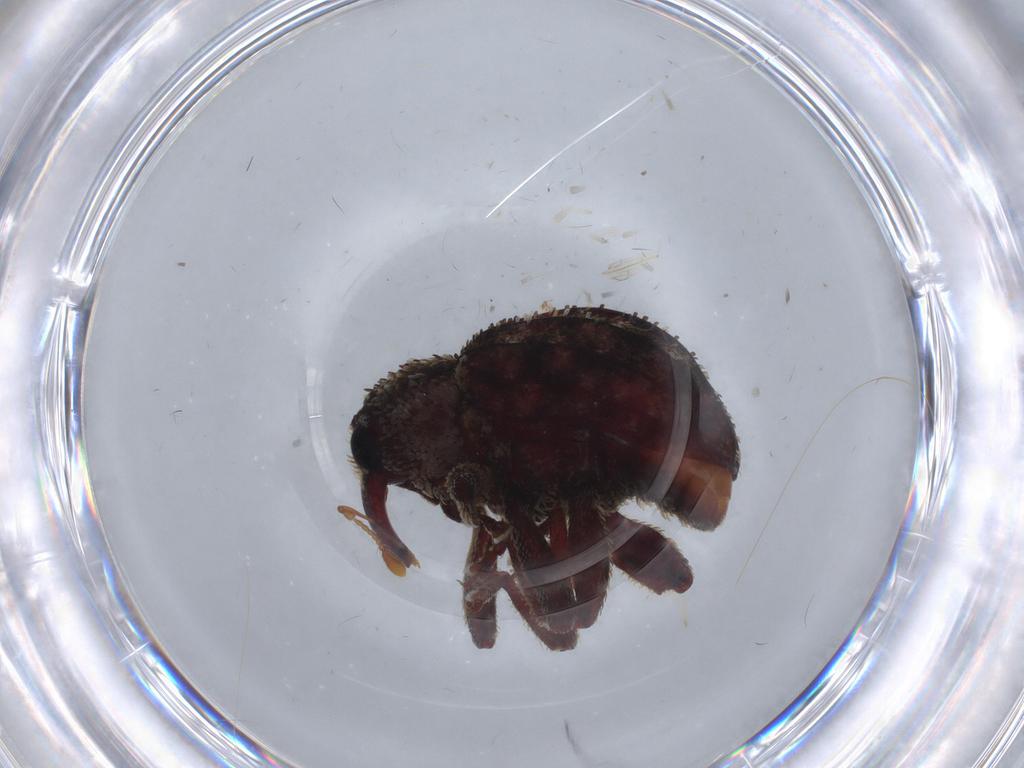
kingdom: Animalia
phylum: Arthropoda
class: Insecta
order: Coleoptera
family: Curculionidae
